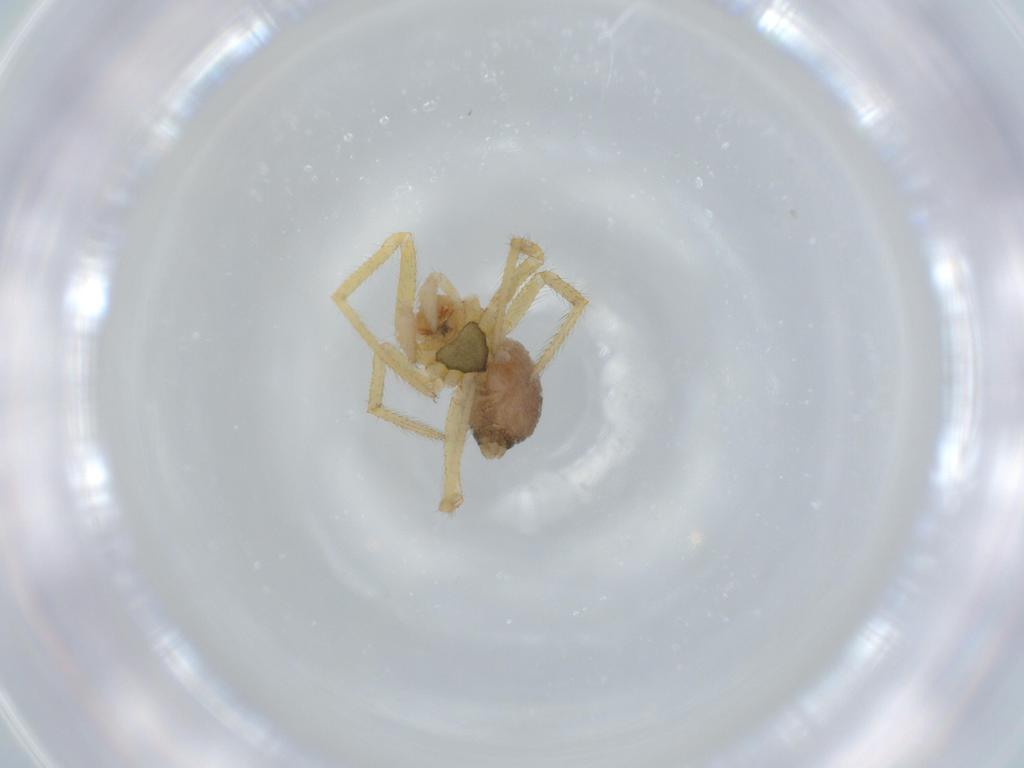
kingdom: Animalia
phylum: Arthropoda
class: Arachnida
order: Araneae
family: Nesticidae
